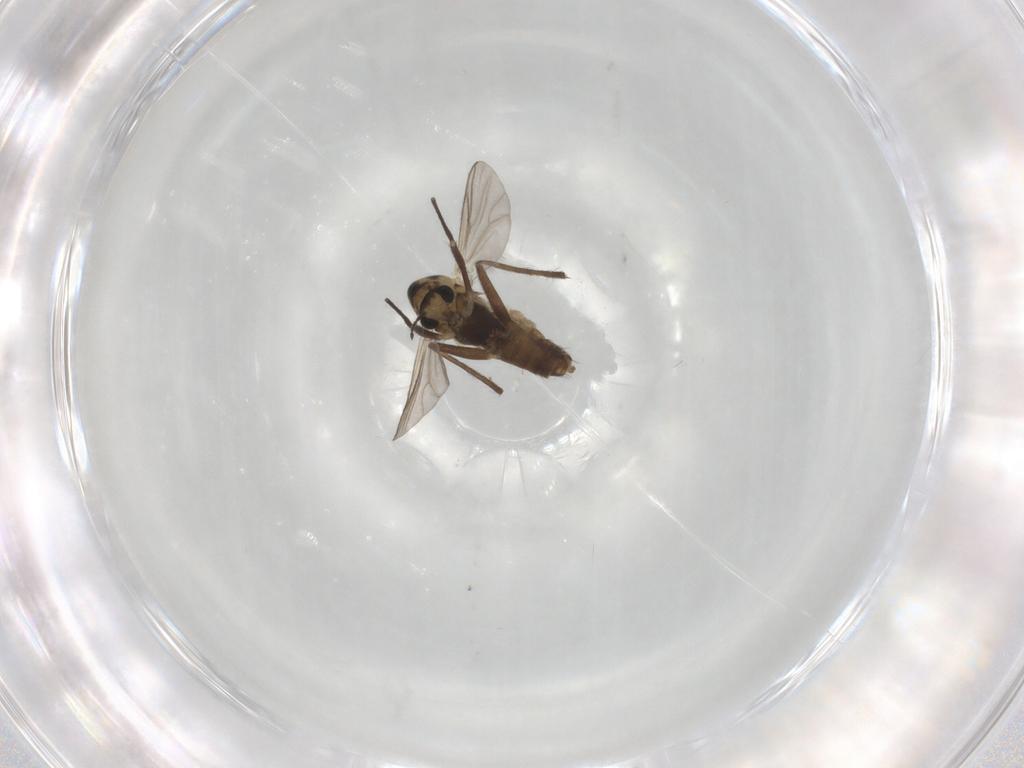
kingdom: Animalia
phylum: Arthropoda
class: Insecta
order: Diptera
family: Chironomidae
